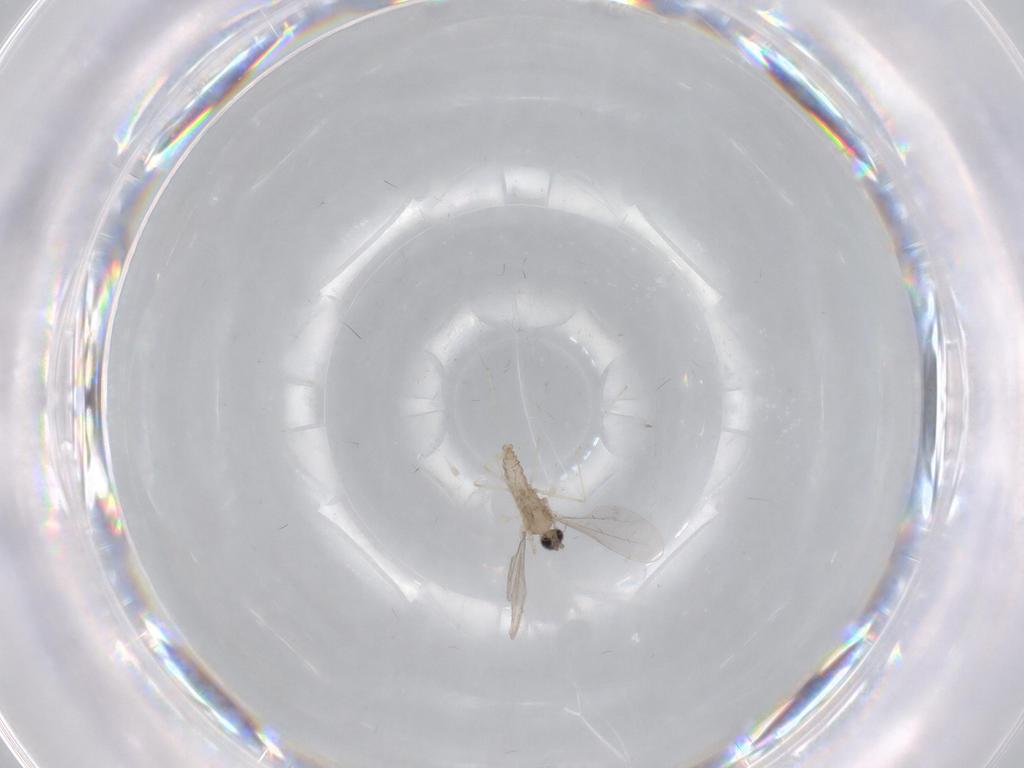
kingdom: Animalia
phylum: Arthropoda
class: Insecta
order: Diptera
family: Cecidomyiidae
